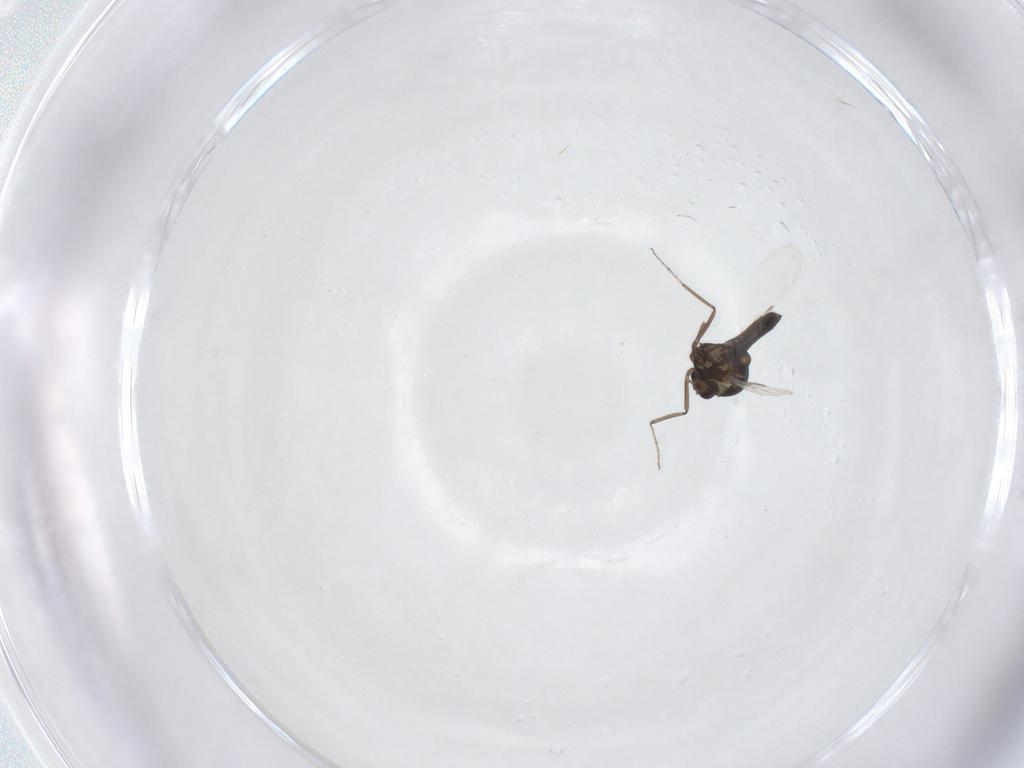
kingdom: Animalia
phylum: Arthropoda
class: Insecta
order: Diptera
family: Ceratopogonidae
